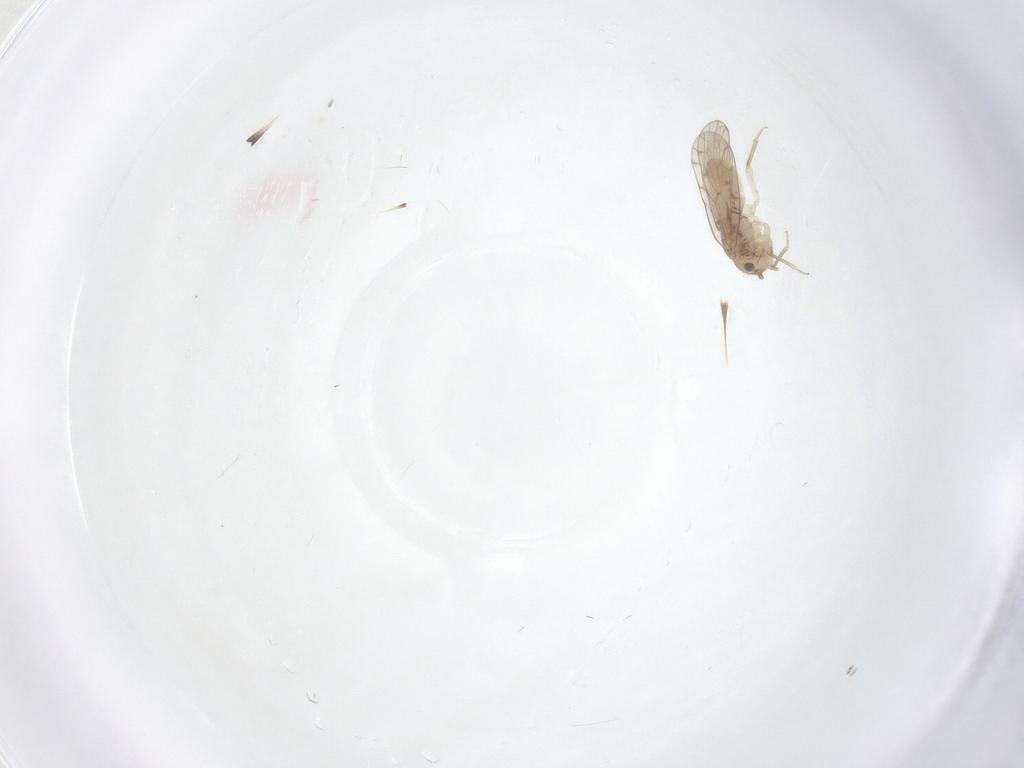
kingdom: Animalia
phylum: Arthropoda
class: Insecta
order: Psocodea
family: Ectopsocidae
